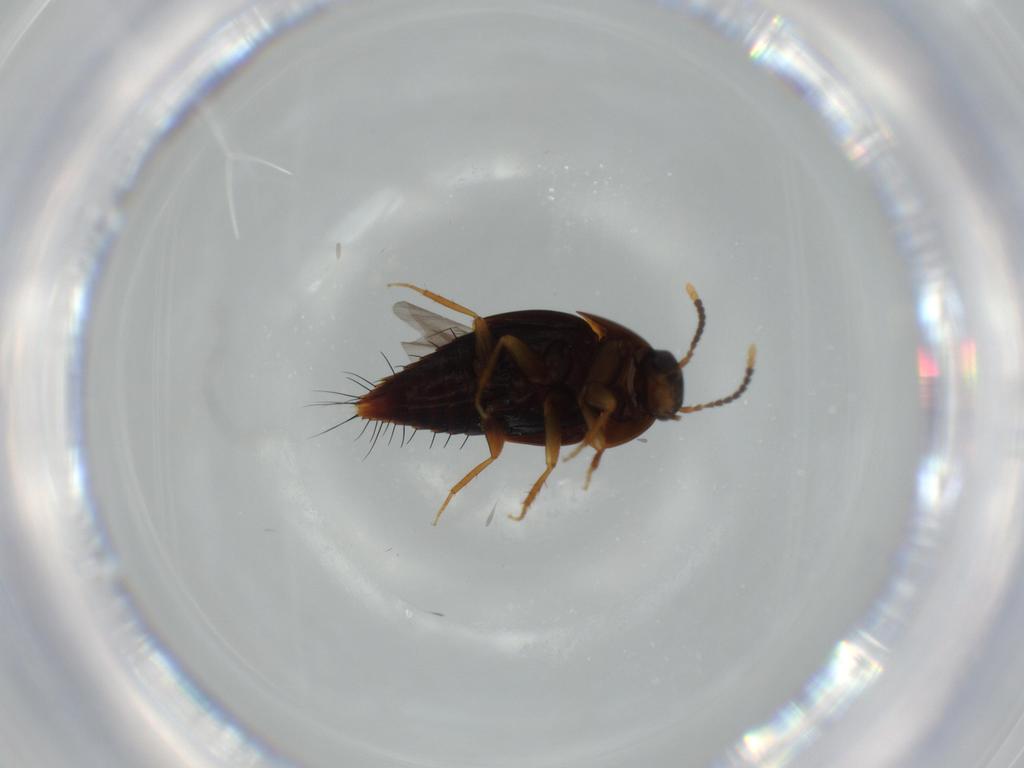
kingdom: Animalia
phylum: Arthropoda
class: Insecta
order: Coleoptera
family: Staphylinidae
